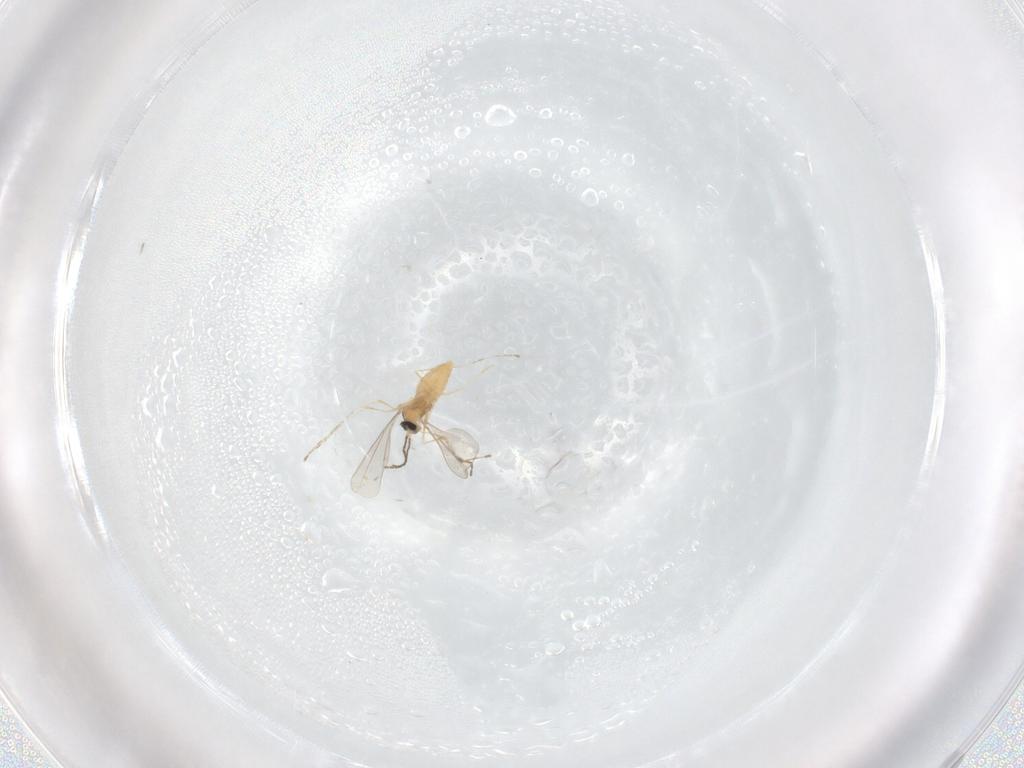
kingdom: Animalia
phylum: Arthropoda
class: Insecta
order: Diptera
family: Cecidomyiidae
